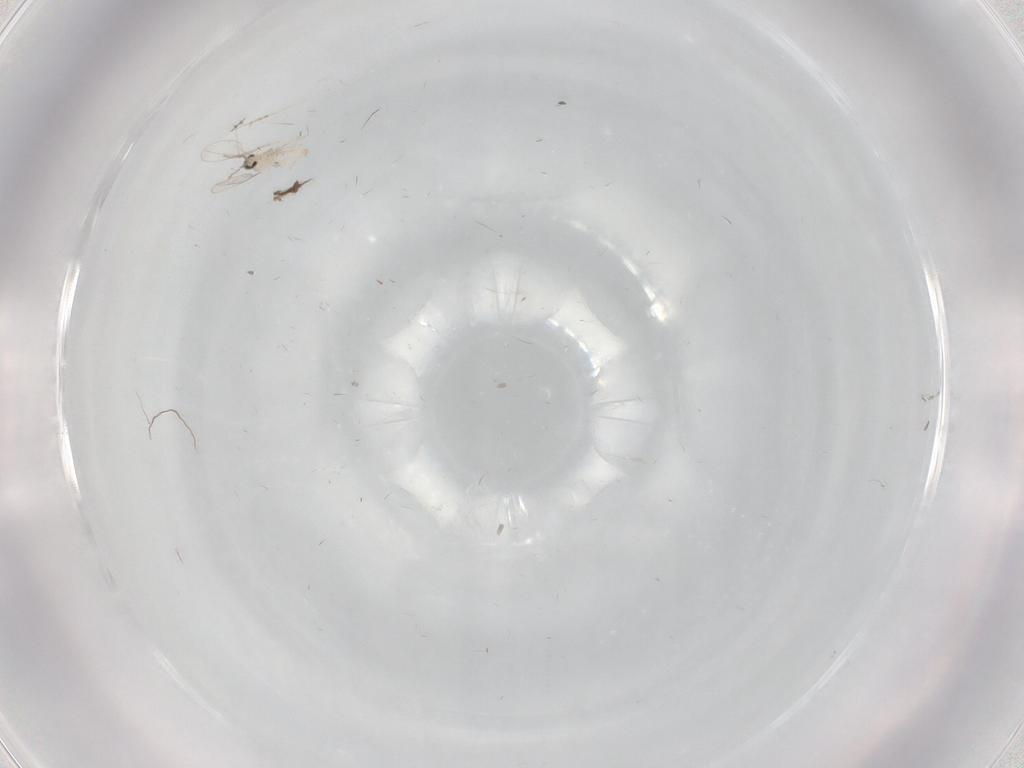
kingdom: Animalia
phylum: Arthropoda
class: Insecta
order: Diptera
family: Cecidomyiidae
